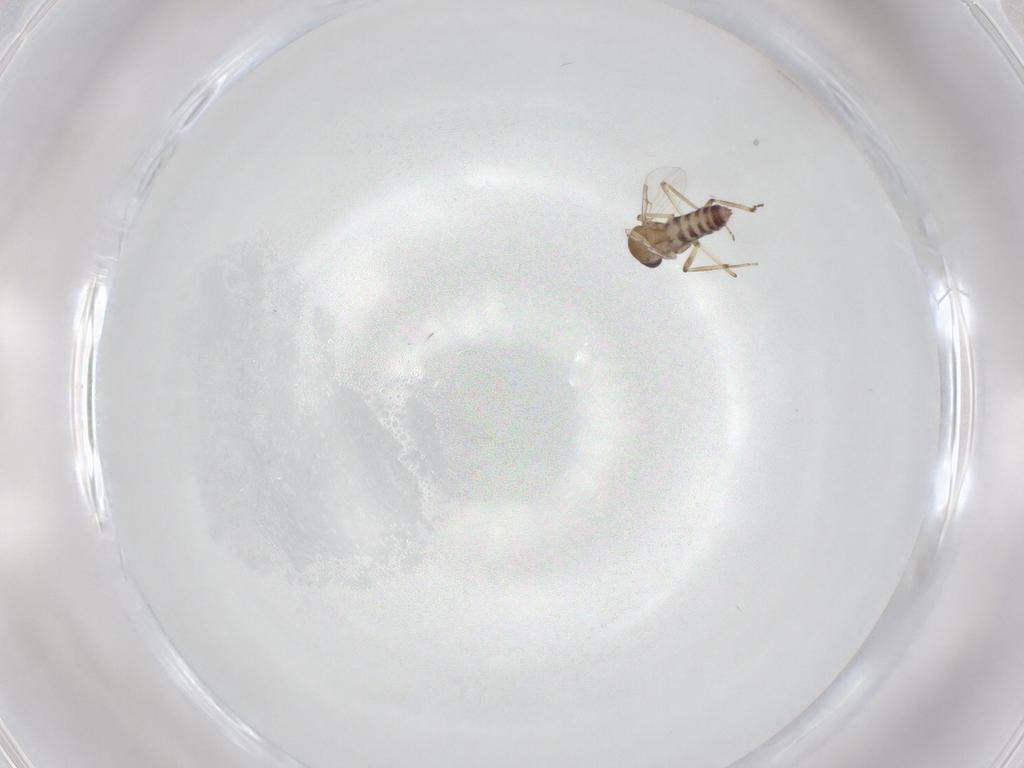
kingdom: Animalia
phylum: Arthropoda
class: Insecta
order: Diptera
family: Ceratopogonidae
